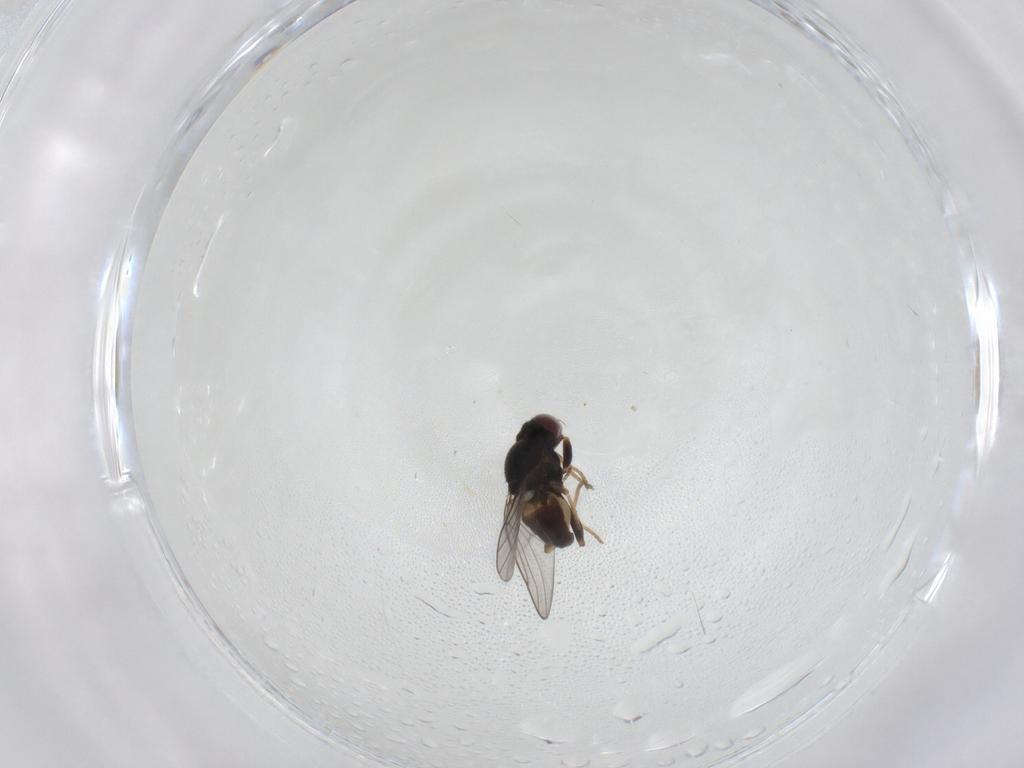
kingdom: Animalia
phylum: Arthropoda
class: Insecta
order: Diptera
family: Chloropidae
